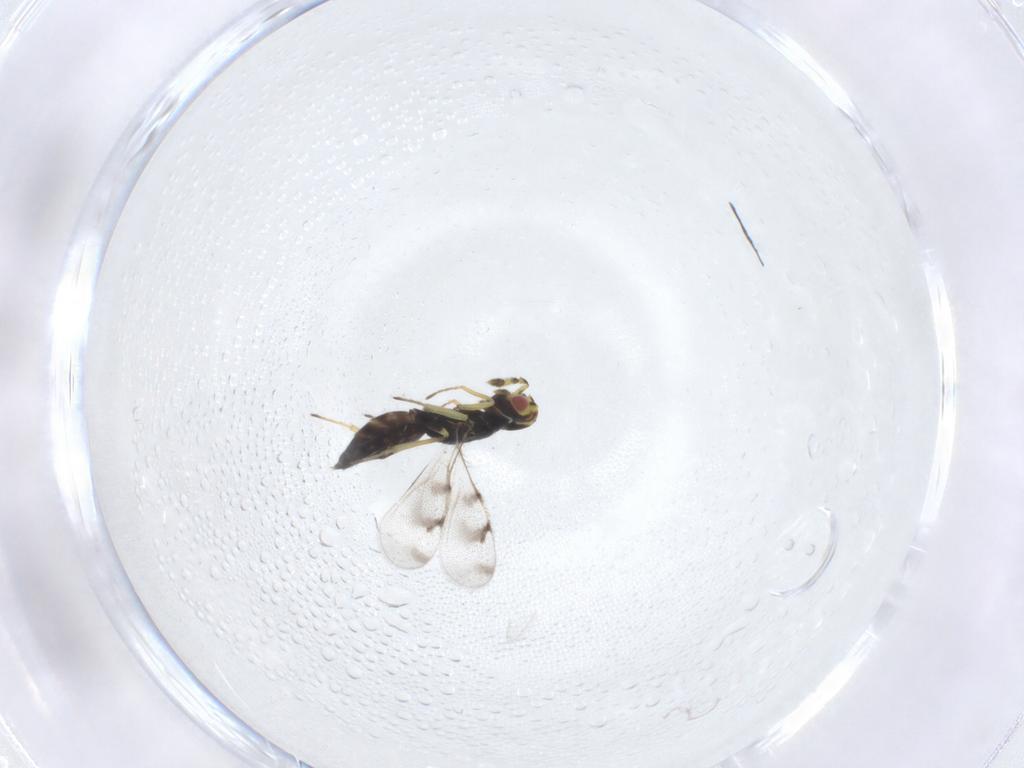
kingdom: Animalia
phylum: Arthropoda
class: Insecta
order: Hymenoptera
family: Eulophidae
